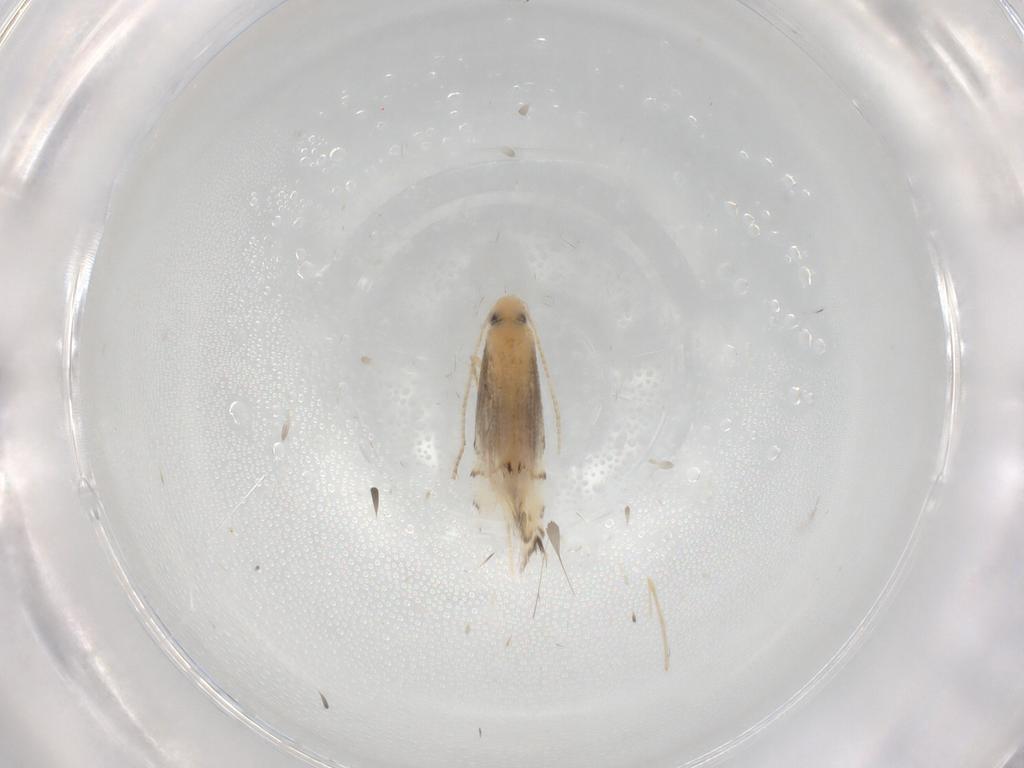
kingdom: Animalia
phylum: Arthropoda
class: Insecta
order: Lepidoptera
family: Gracillariidae
